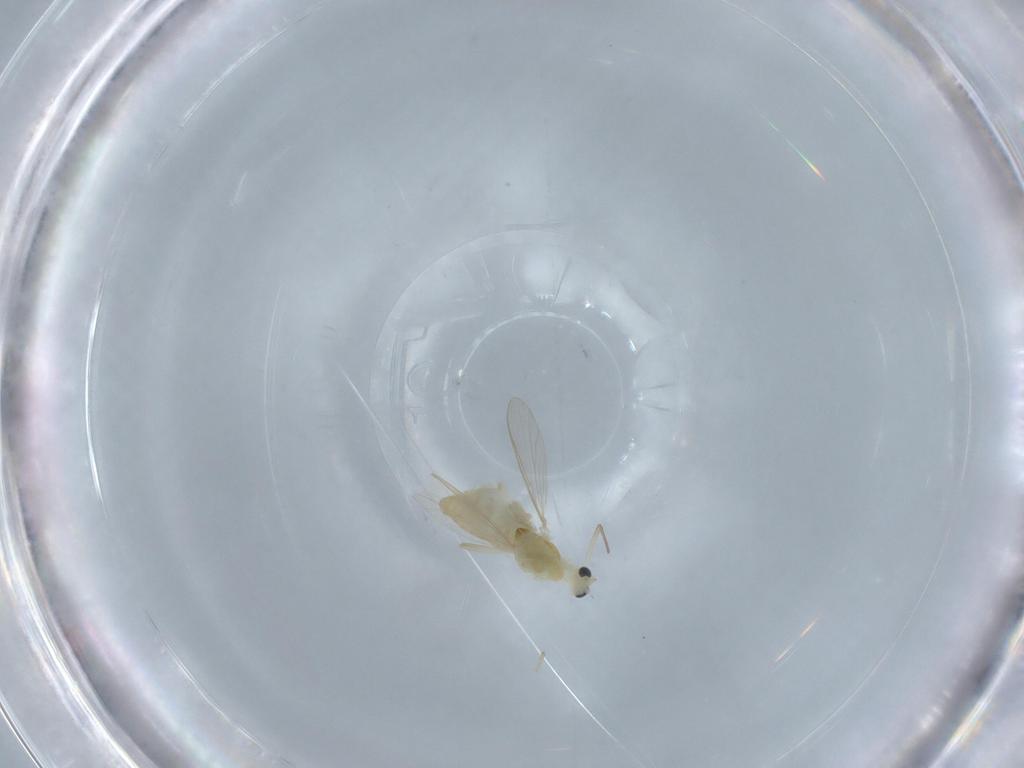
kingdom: Animalia
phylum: Arthropoda
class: Insecta
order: Diptera
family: Chironomidae
